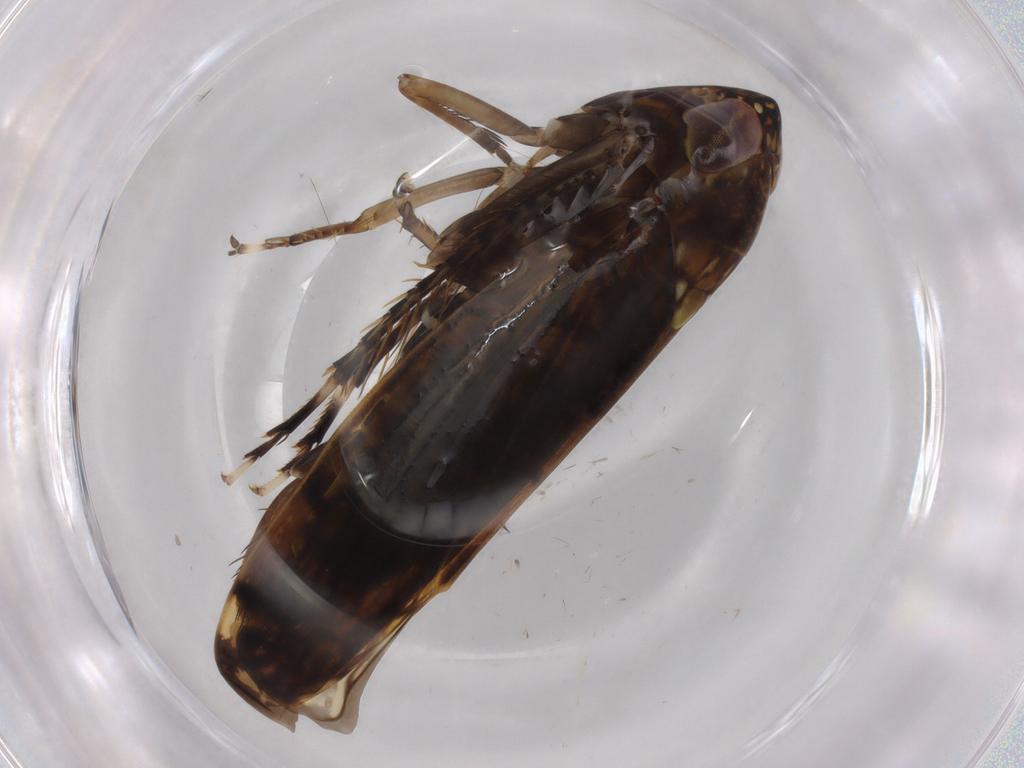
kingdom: Animalia
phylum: Arthropoda
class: Insecta
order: Hemiptera
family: Cicadellidae
